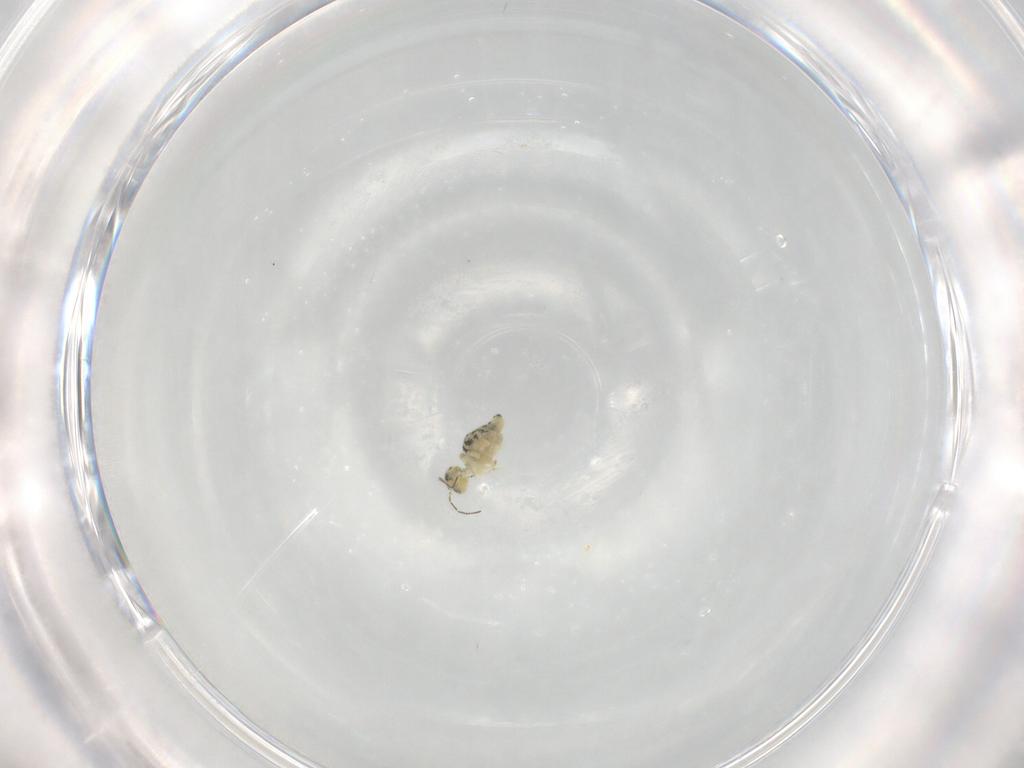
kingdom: Animalia
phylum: Arthropoda
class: Collembola
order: Symphypleona
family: Bourletiellidae
